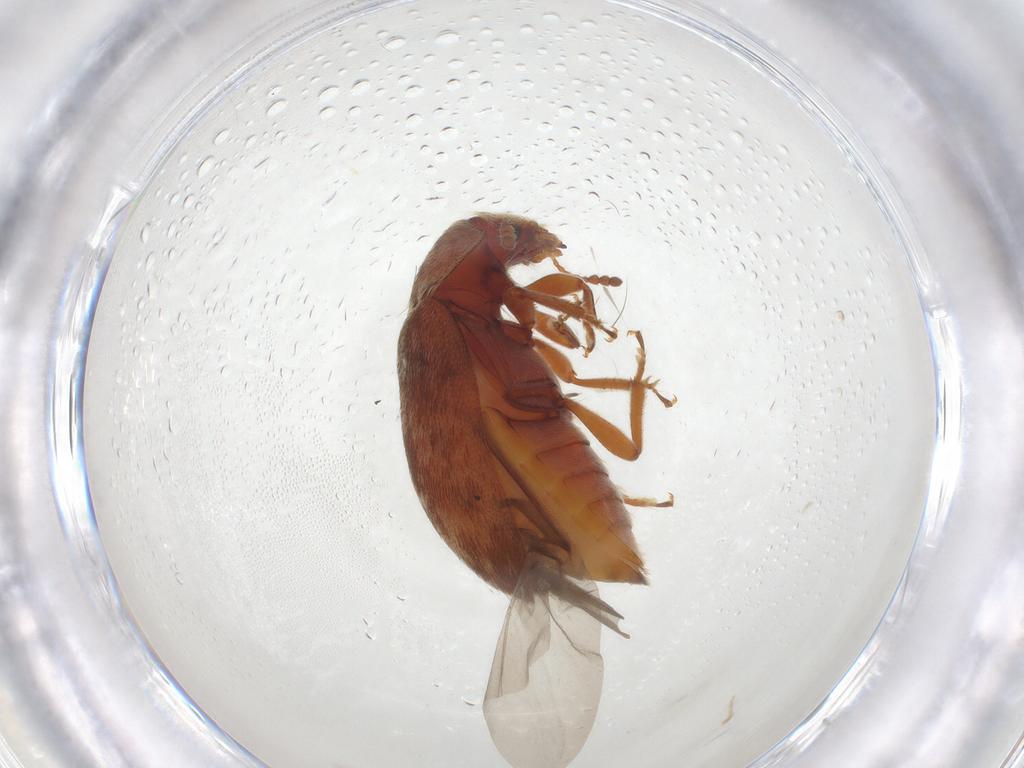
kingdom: Animalia
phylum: Arthropoda
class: Insecta
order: Coleoptera
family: Byturidae
